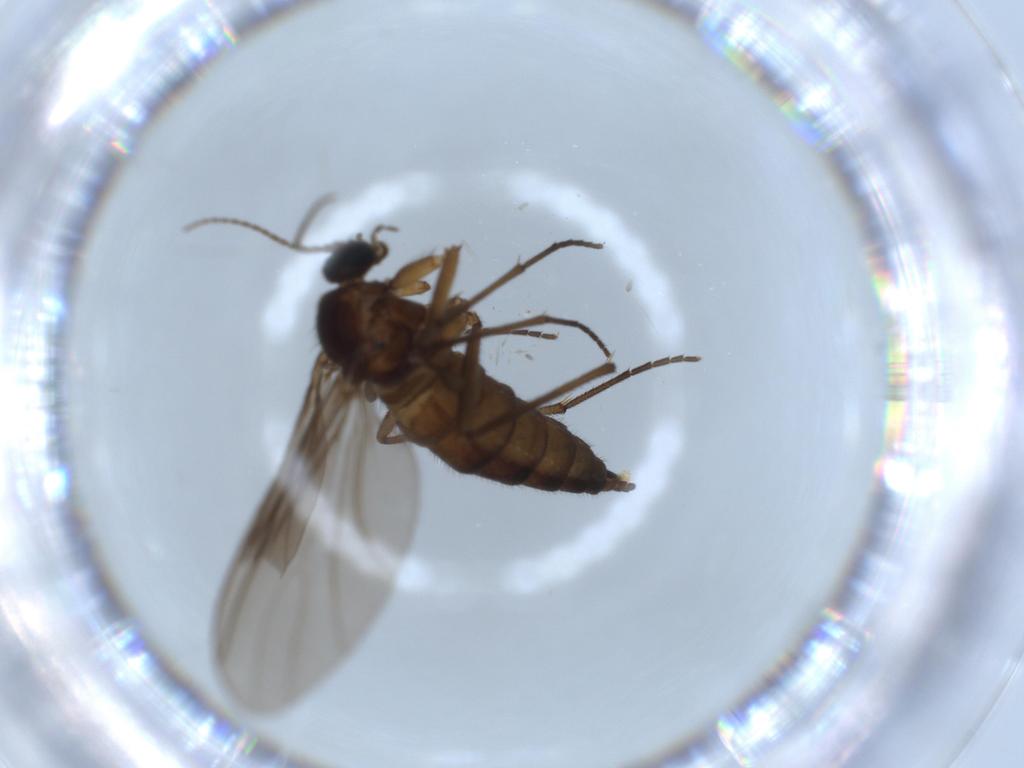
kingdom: Animalia
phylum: Arthropoda
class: Insecta
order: Diptera
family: Sciaridae
